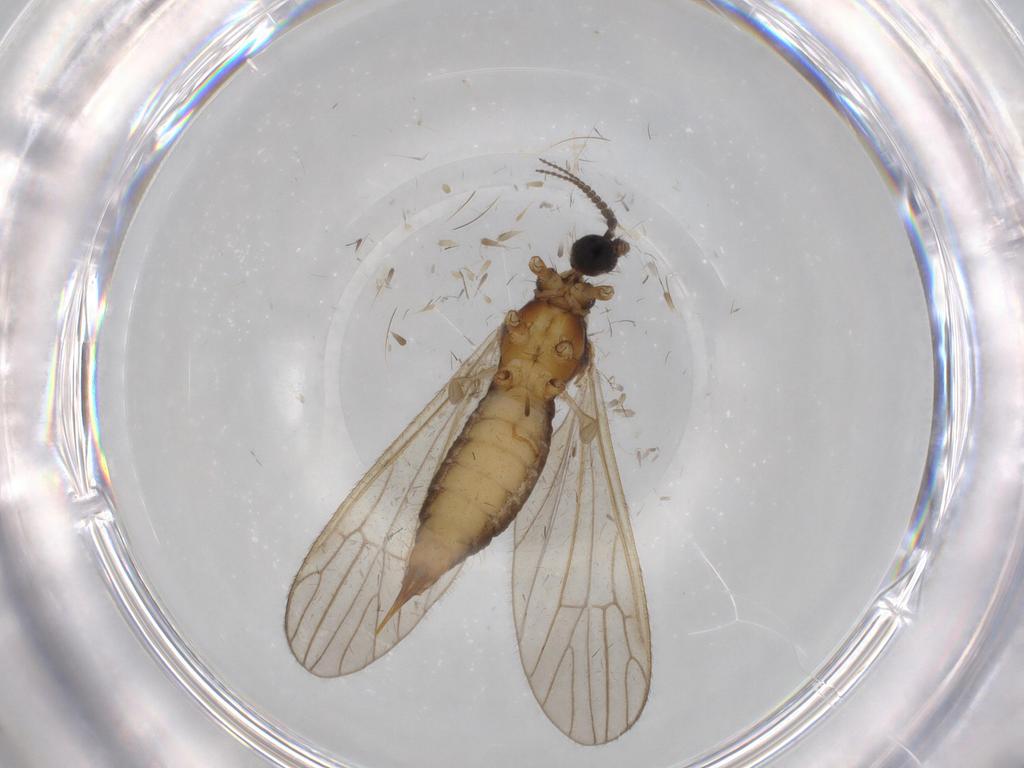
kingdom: Animalia
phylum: Arthropoda
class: Insecta
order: Diptera
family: Agromyzidae
